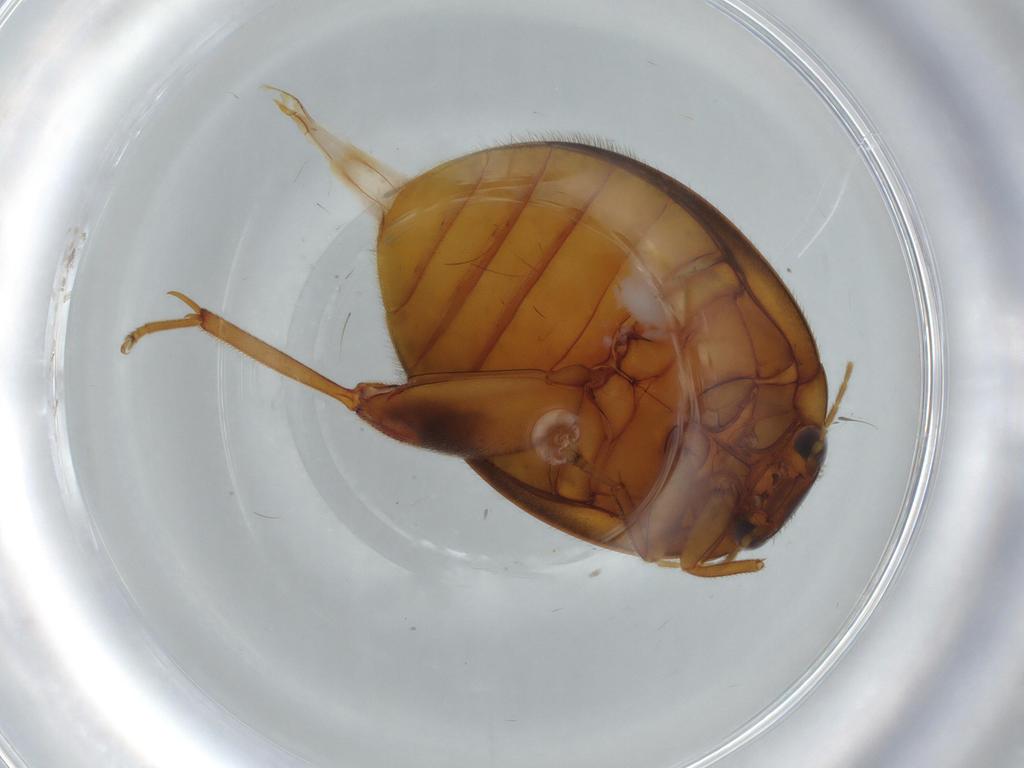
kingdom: Animalia
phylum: Arthropoda
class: Insecta
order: Coleoptera
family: Scirtidae
